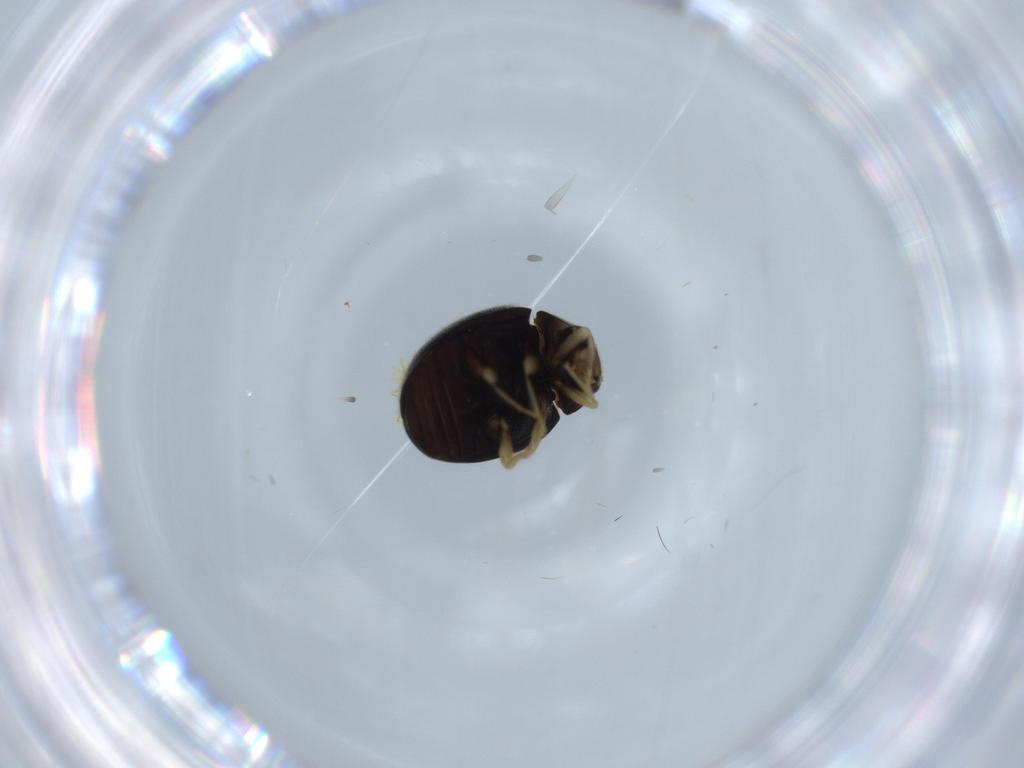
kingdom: Animalia
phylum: Arthropoda
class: Insecta
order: Coleoptera
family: Coccinellidae
